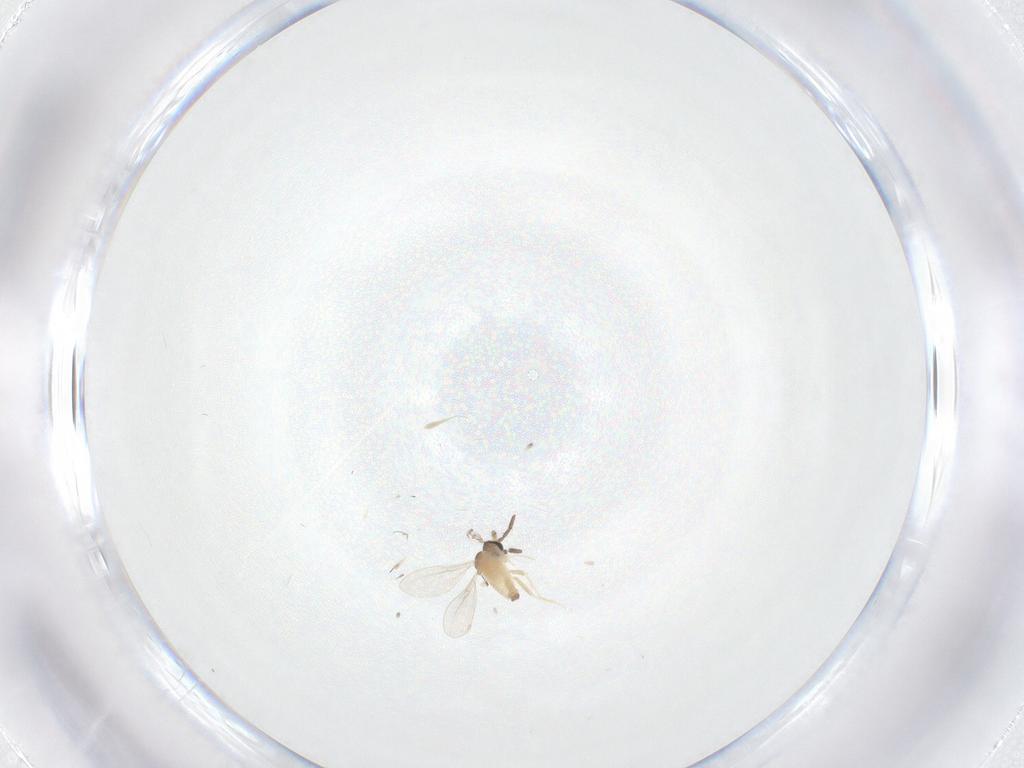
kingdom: Animalia
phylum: Arthropoda
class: Insecta
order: Diptera
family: Cecidomyiidae
